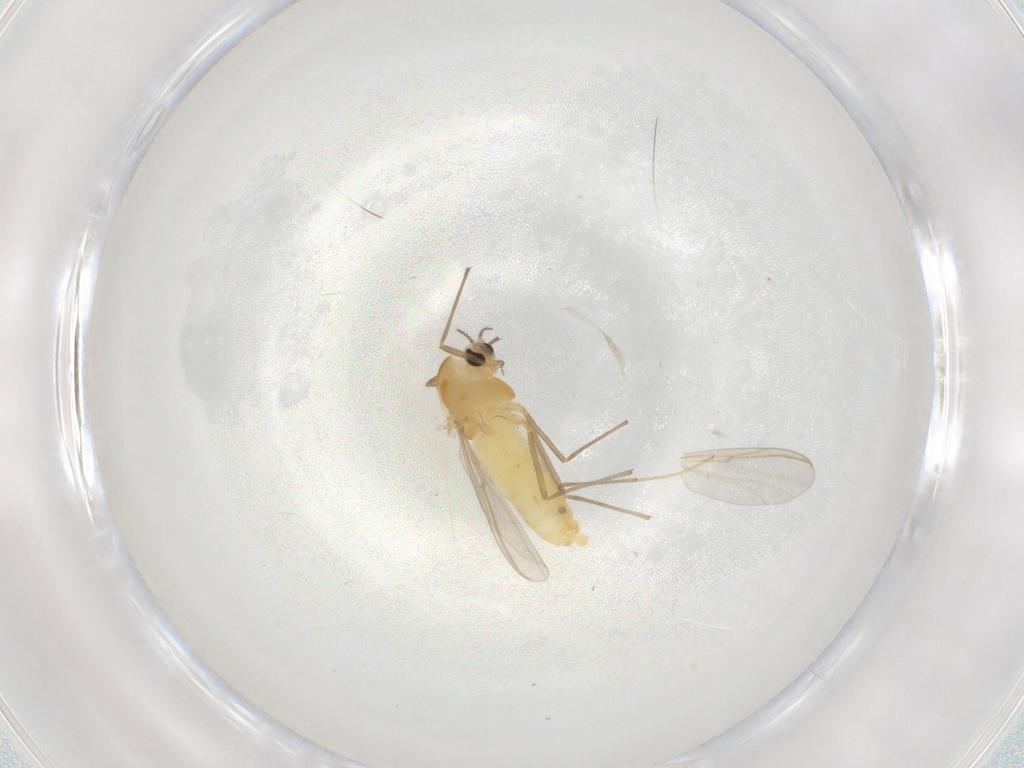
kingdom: Animalia
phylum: Arthropoda
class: Insecta
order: Diptera
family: Chironomidae
